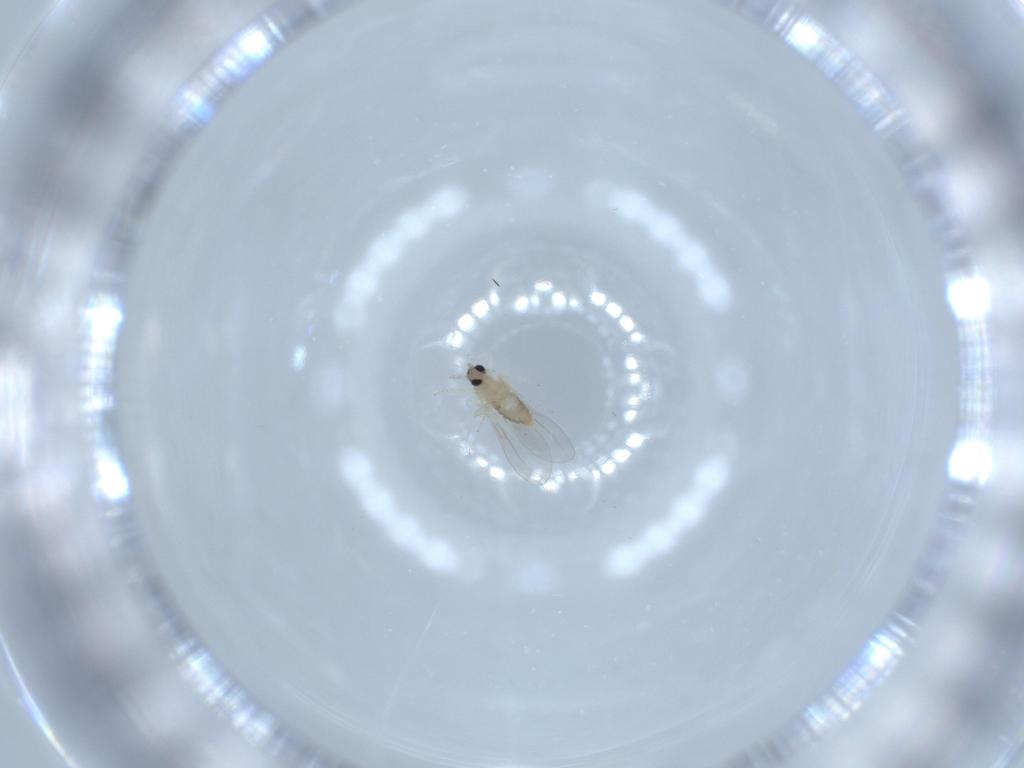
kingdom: Animalia
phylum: Arthropoda
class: Insecta
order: Diptera
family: Cecidomyiidae
